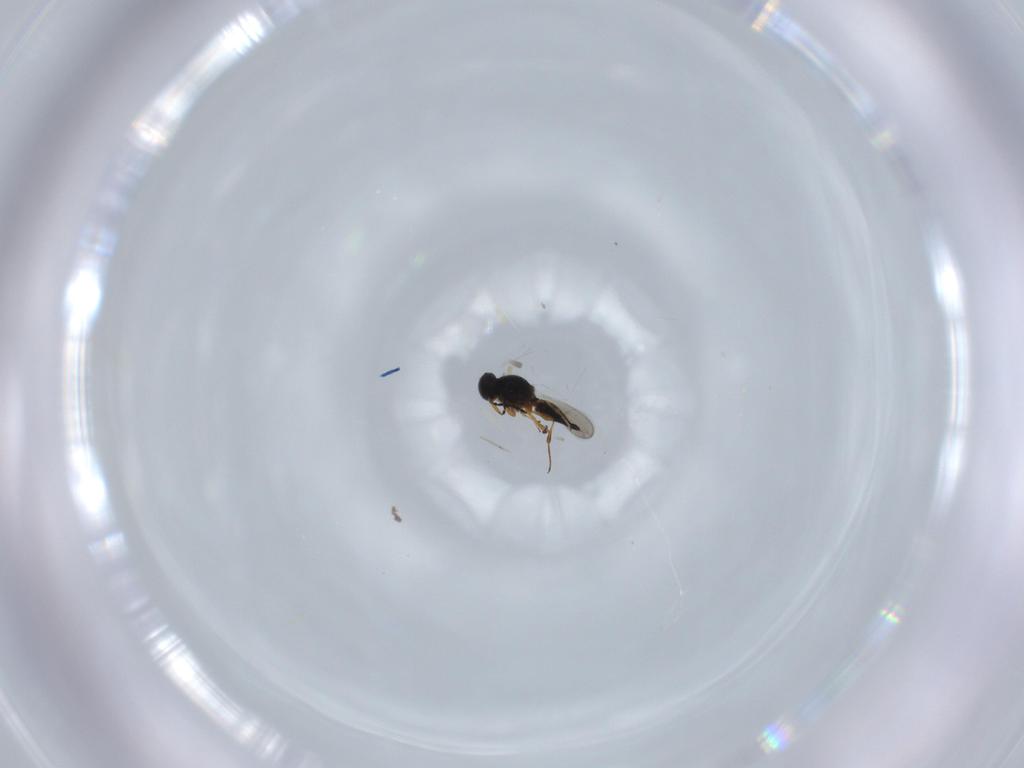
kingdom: Animalia
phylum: Arthropoda
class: Insecta
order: Hymenoptera
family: Platygastridae
